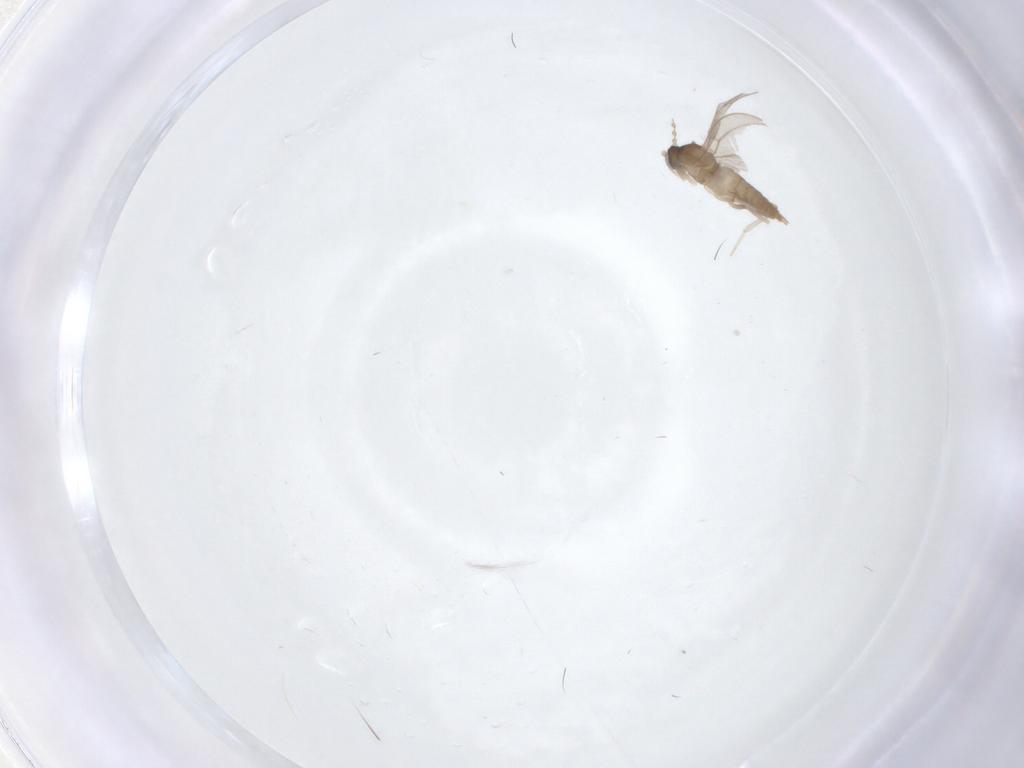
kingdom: Animalia
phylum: Arthropoda
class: Insecta
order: Diptera
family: Cecidomyiidae
